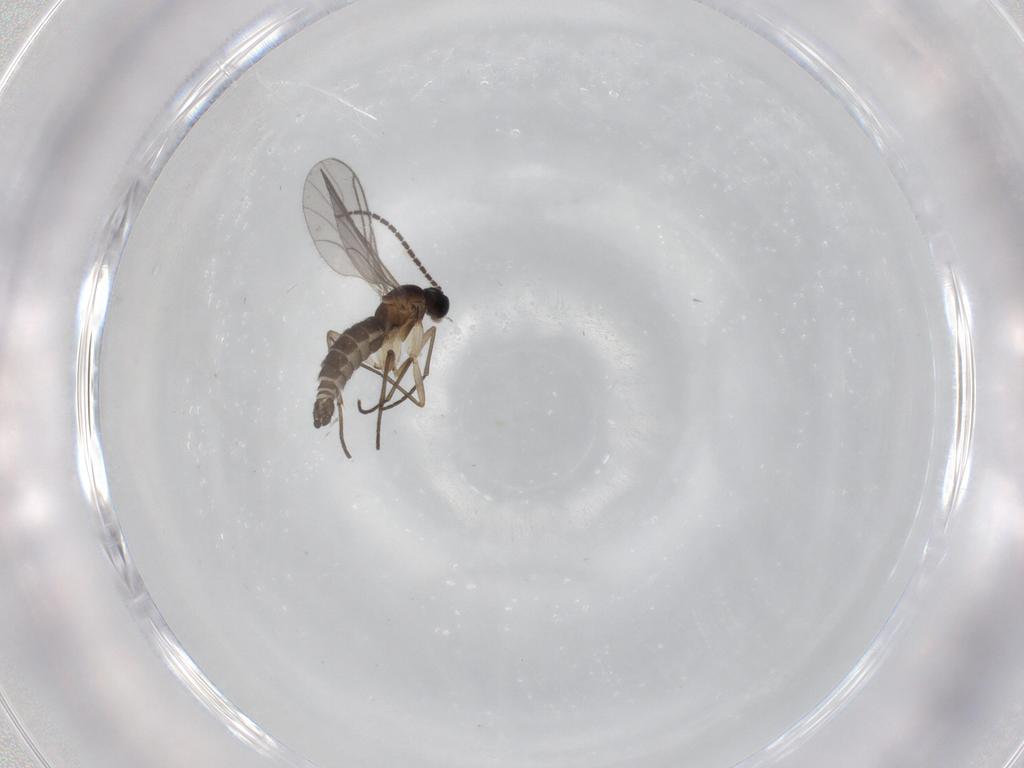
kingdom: Animalia
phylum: Arthropoda
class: Insecta
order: Diptera
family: Sciaridae
